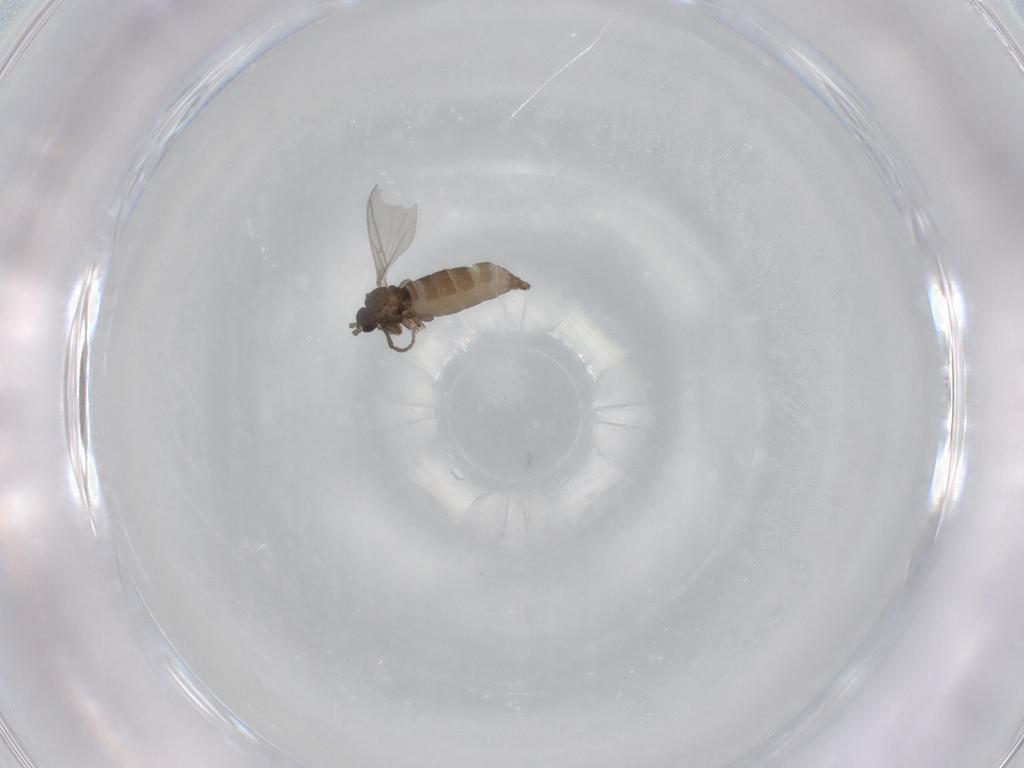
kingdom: Animalia
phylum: Arthropoda
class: Insecta
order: Diptera
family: Sciaridae
